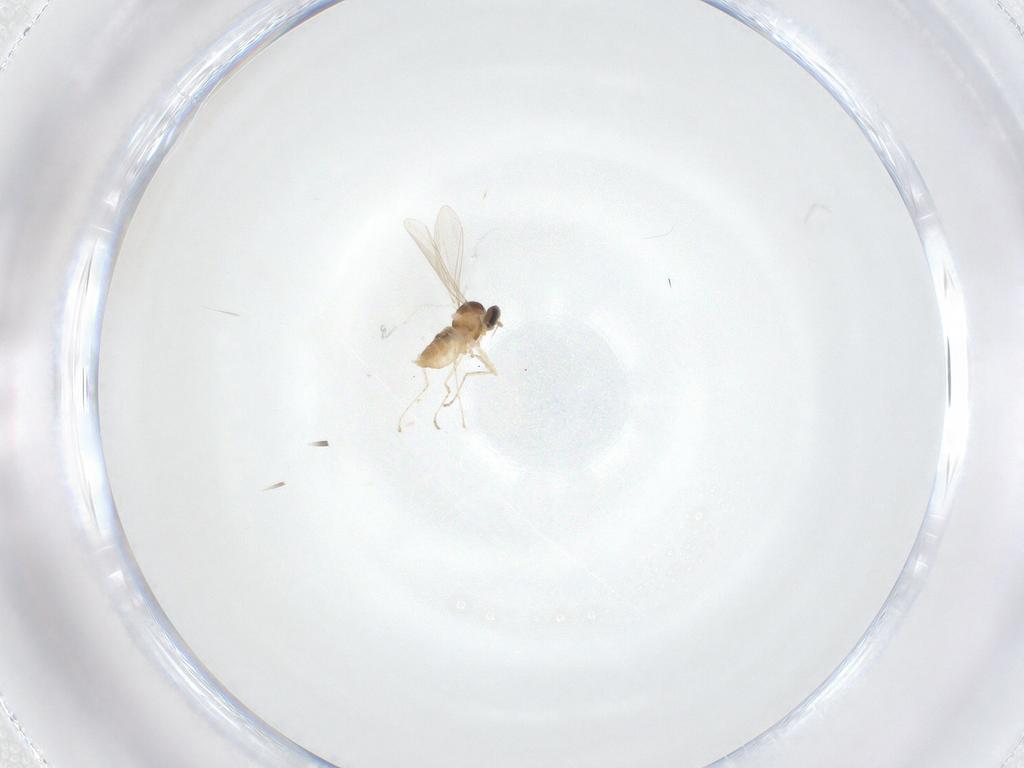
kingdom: Animalia
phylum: Arthropoda
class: Insecta
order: Diptera
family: Cecidomyiidae
